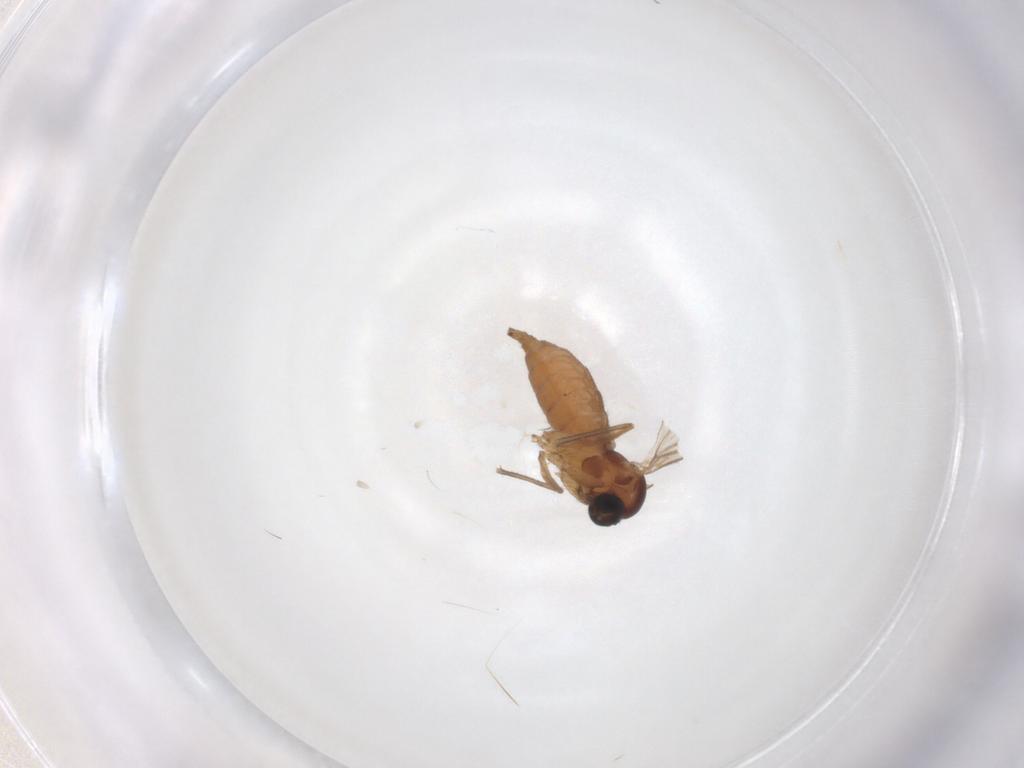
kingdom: Animalia
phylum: Arthropoda
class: Insecta
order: Diptera
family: Sciaridae
